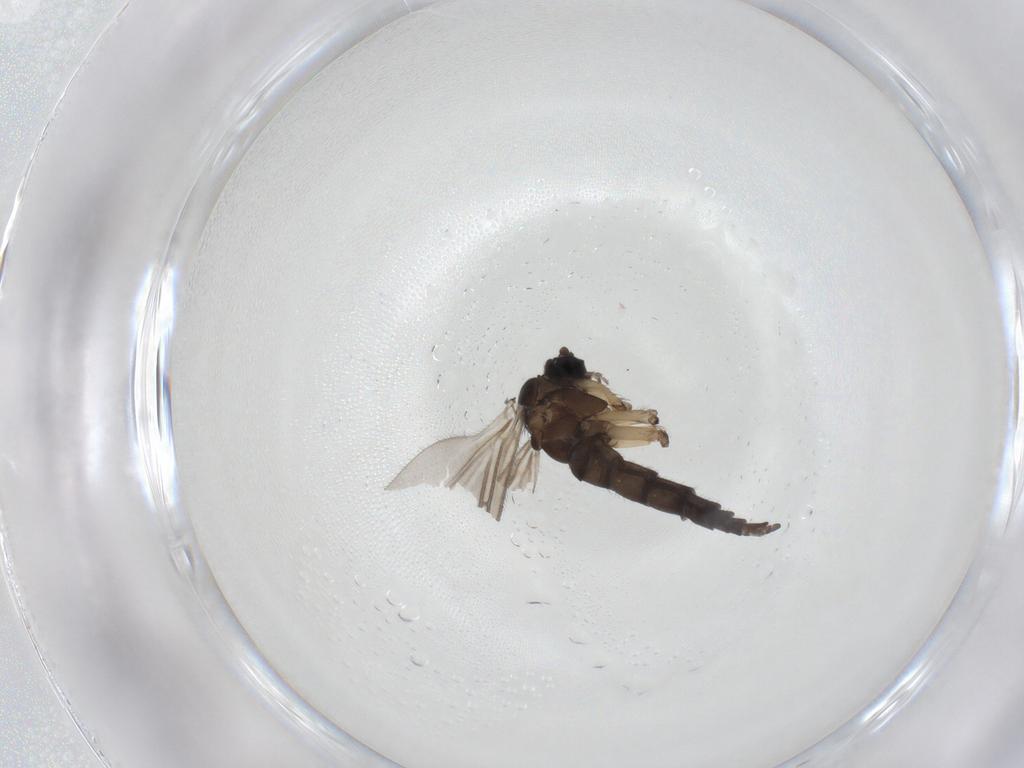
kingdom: Animalia
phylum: Arthropoda
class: Insecta
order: Diptera
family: Sciaridae
